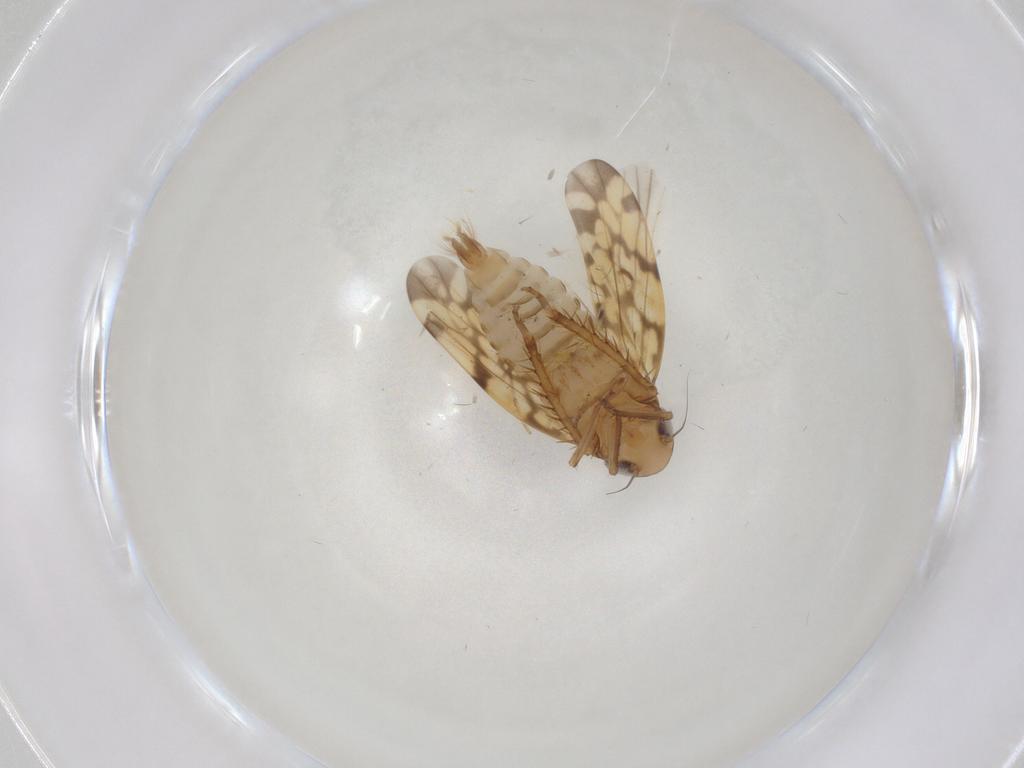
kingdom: Animalia
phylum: Arthropoda
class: Insecta
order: Hemiptera
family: Cicadellidae
